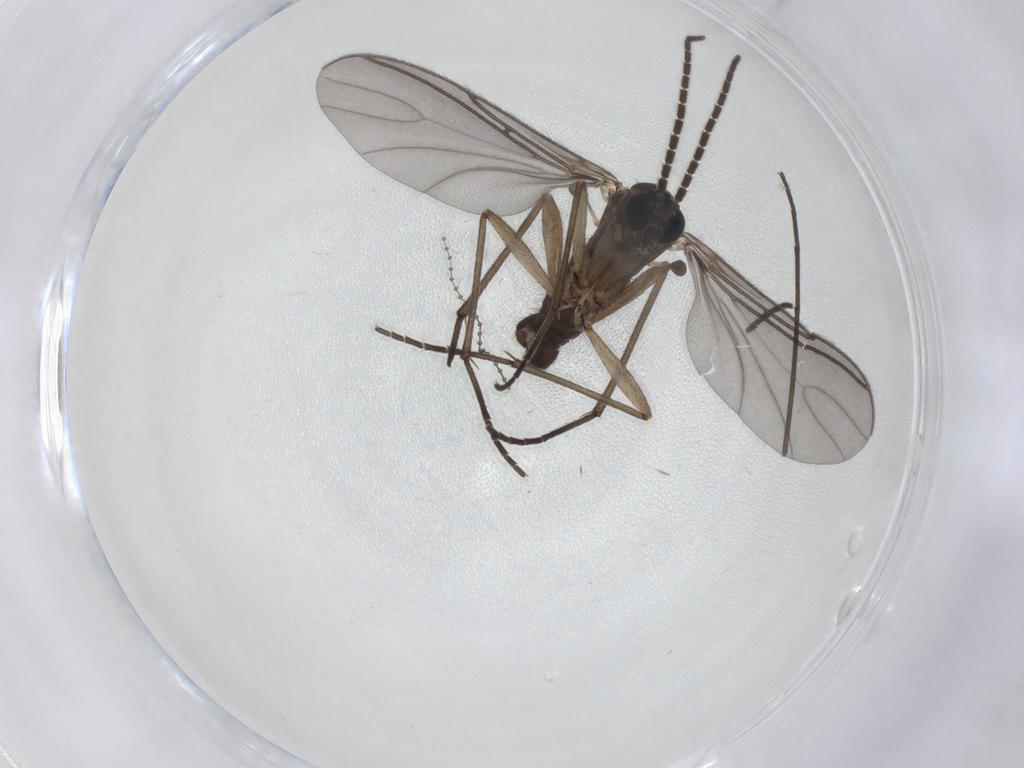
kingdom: Animalia
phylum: Arthropoda
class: Insecta
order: Diptera
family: Sciaridae
